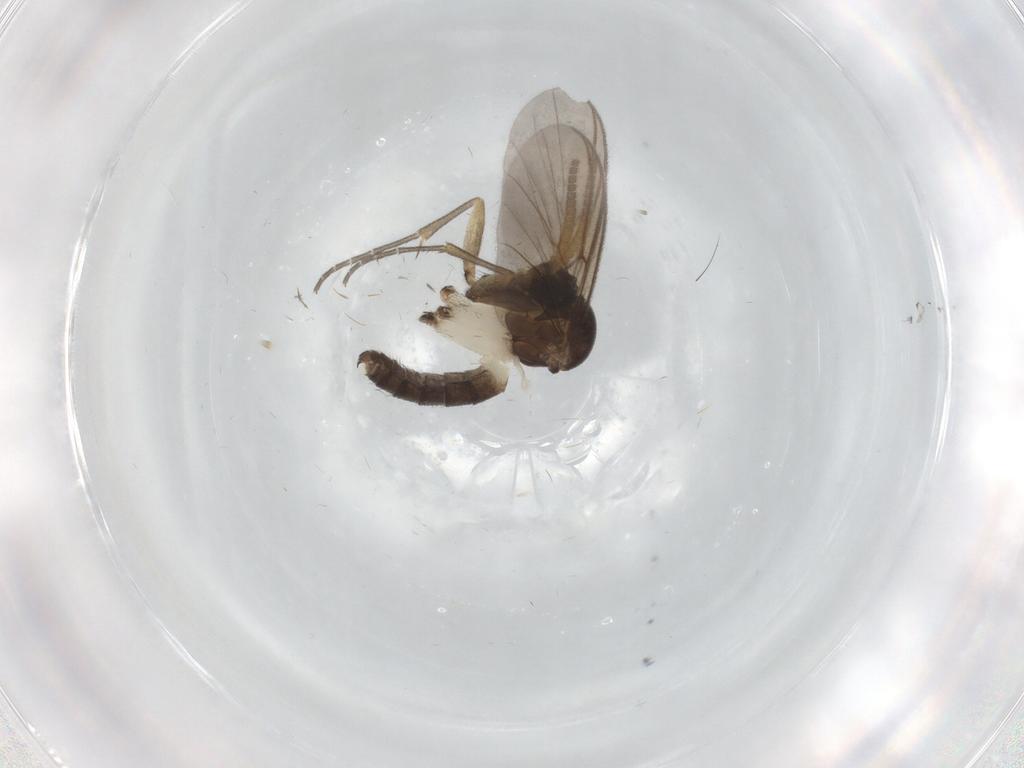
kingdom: Animalia
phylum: Arthropoda
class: Insecta
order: Diptera
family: Cecidomyiidae
